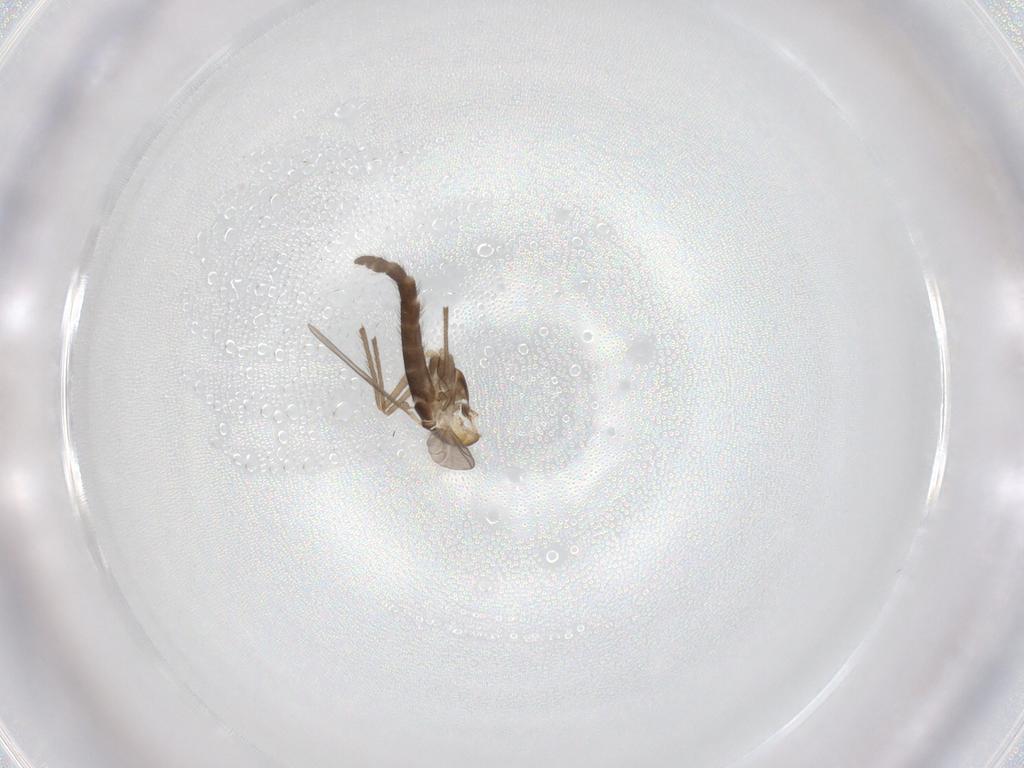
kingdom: Animalia
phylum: Arthropoda
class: Insecta
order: Diptera
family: Chironomidae
